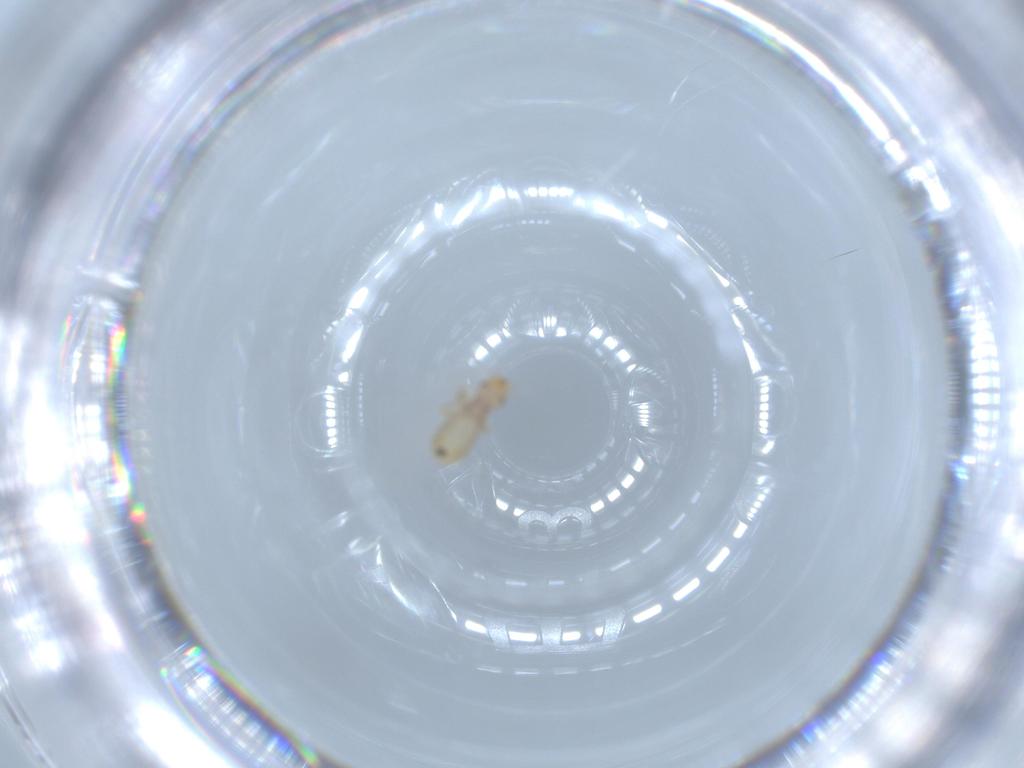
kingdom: Animalia
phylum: Arthropoda
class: Insecta
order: Psocodea
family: Liposcelididae
